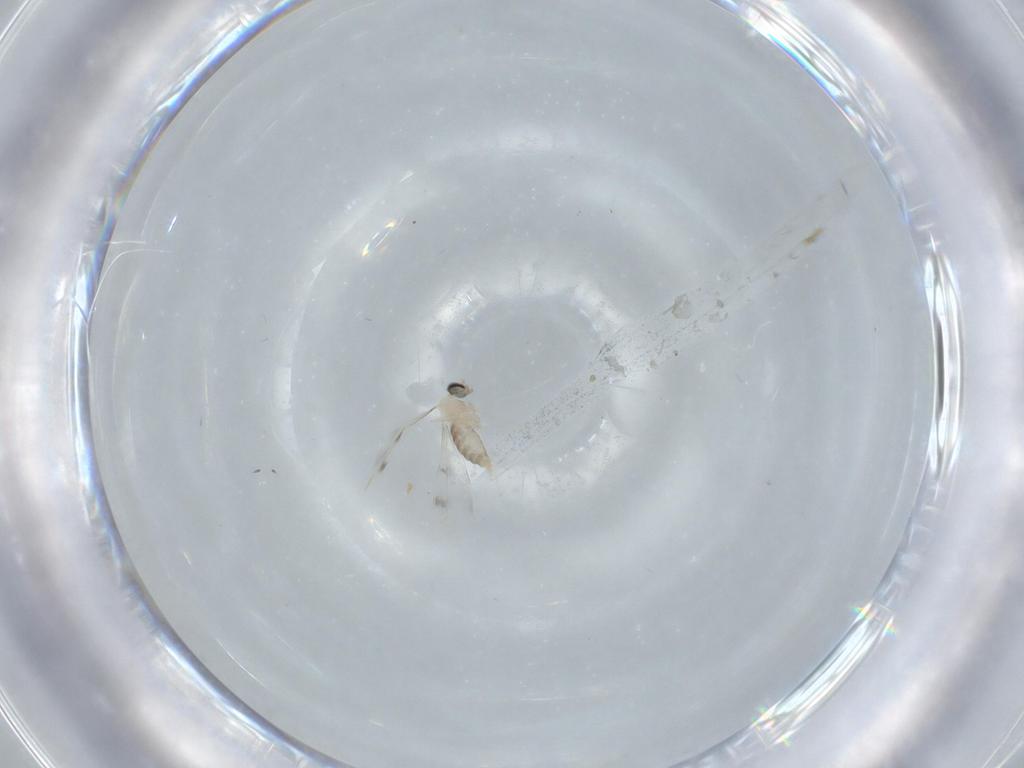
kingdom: Animalia
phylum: Arthropoda
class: Insecta
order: Diptera
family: Cecidomyiidae
